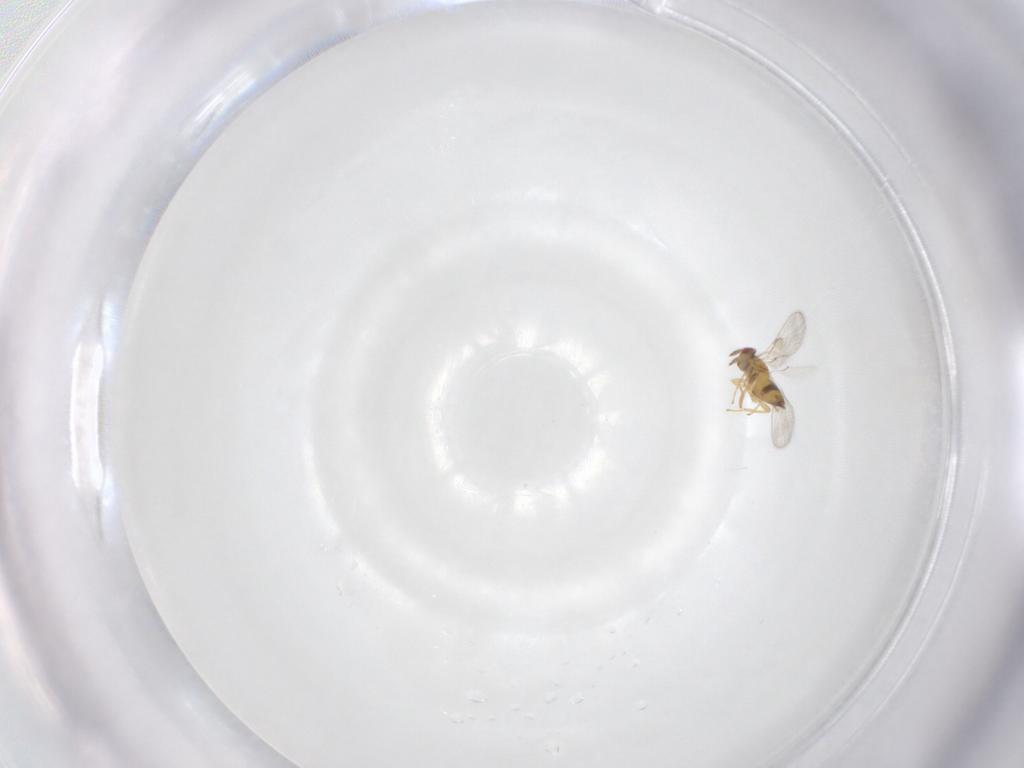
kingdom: Animalia
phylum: Arthropoda
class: Insecta
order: Hymenoptera
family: Trichogrammatidae
